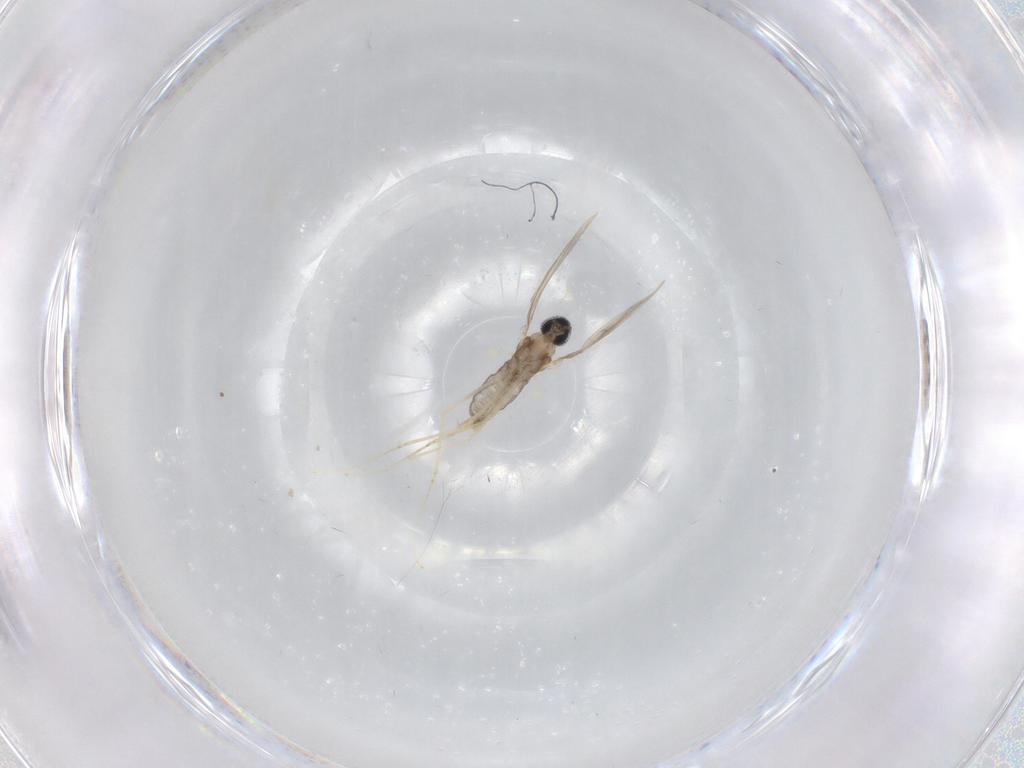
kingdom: Animalia
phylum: Arthropoda
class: Insecta
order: Diptera
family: Cecidomyiidae
